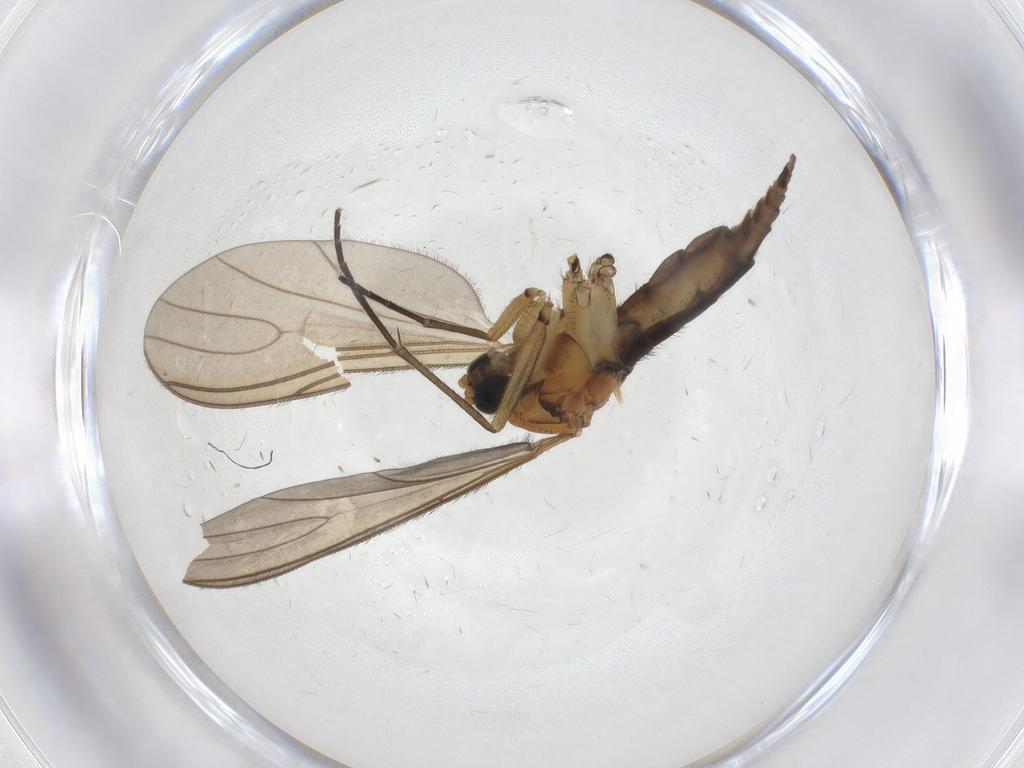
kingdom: Animalia
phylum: Arthropoda
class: Insecta
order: Diptera
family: Sciaridae
